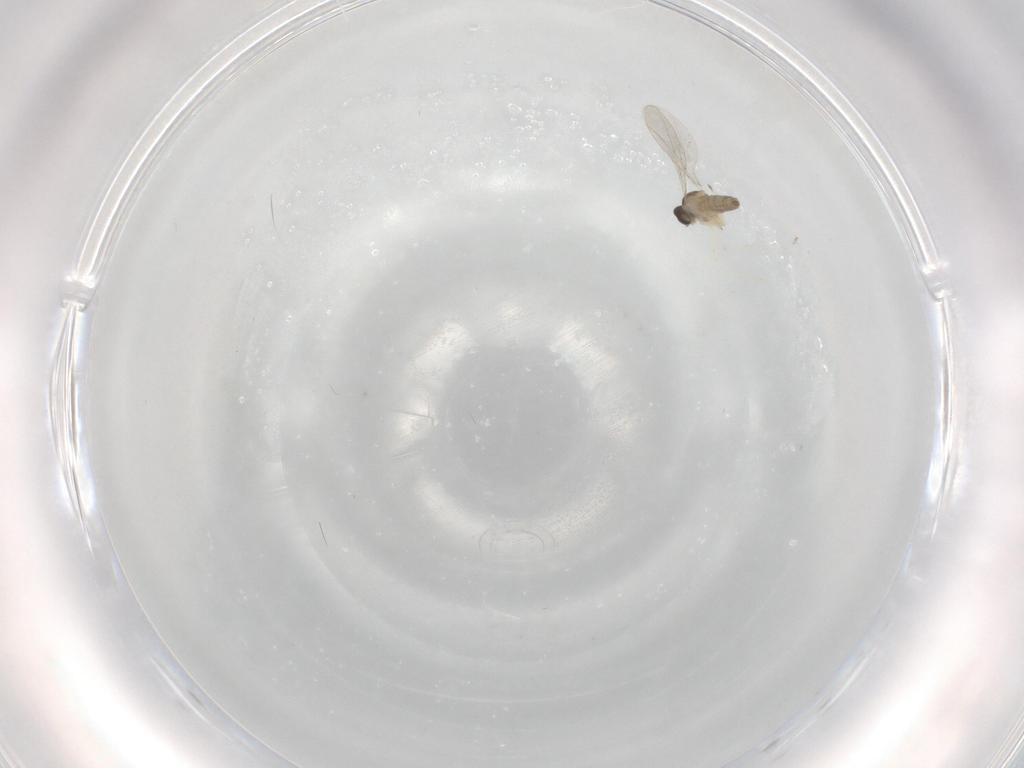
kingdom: Animalia
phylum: Arthropoda
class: Insecta
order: Diptera
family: Cecidomyiidae
